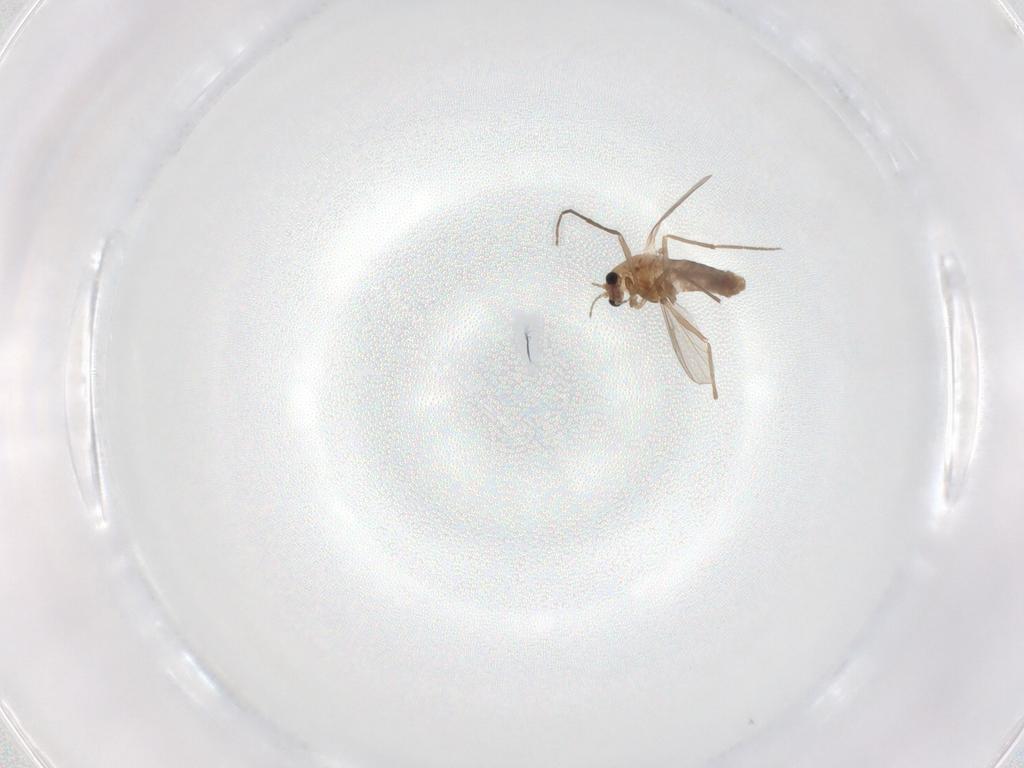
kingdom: Animalia
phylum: Arthropoda
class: Insecta
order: Diptera
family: Chironomidae
